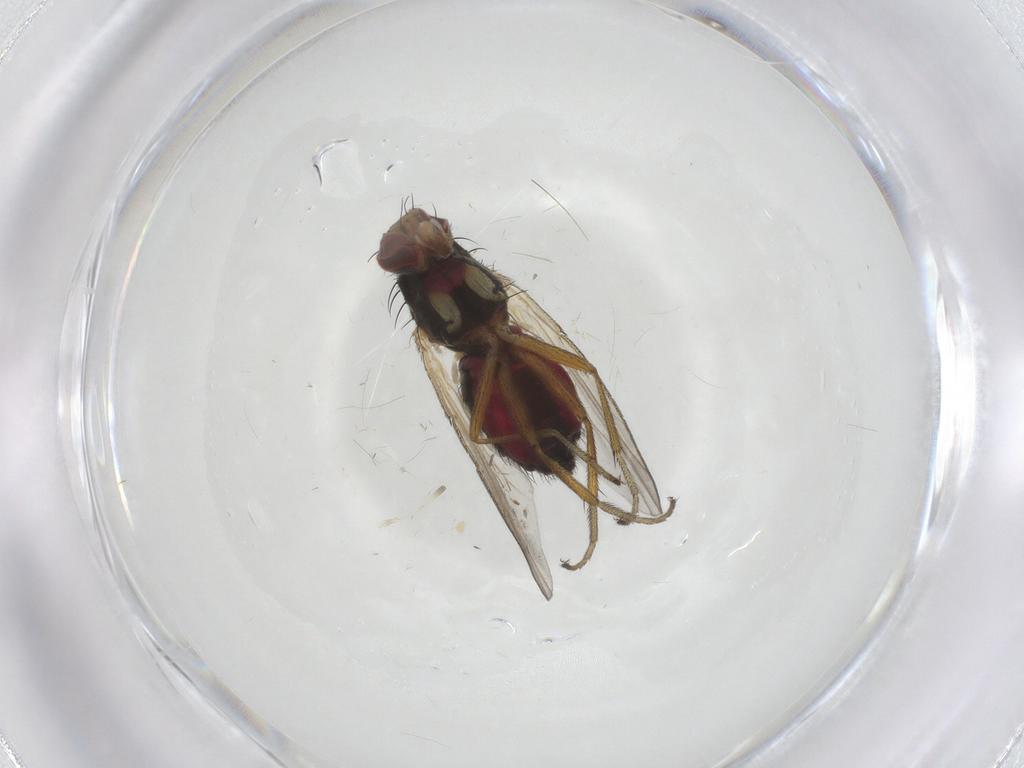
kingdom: Animalia
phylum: Arthropoda
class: Insecta
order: Diptera
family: Heleomyzidae
